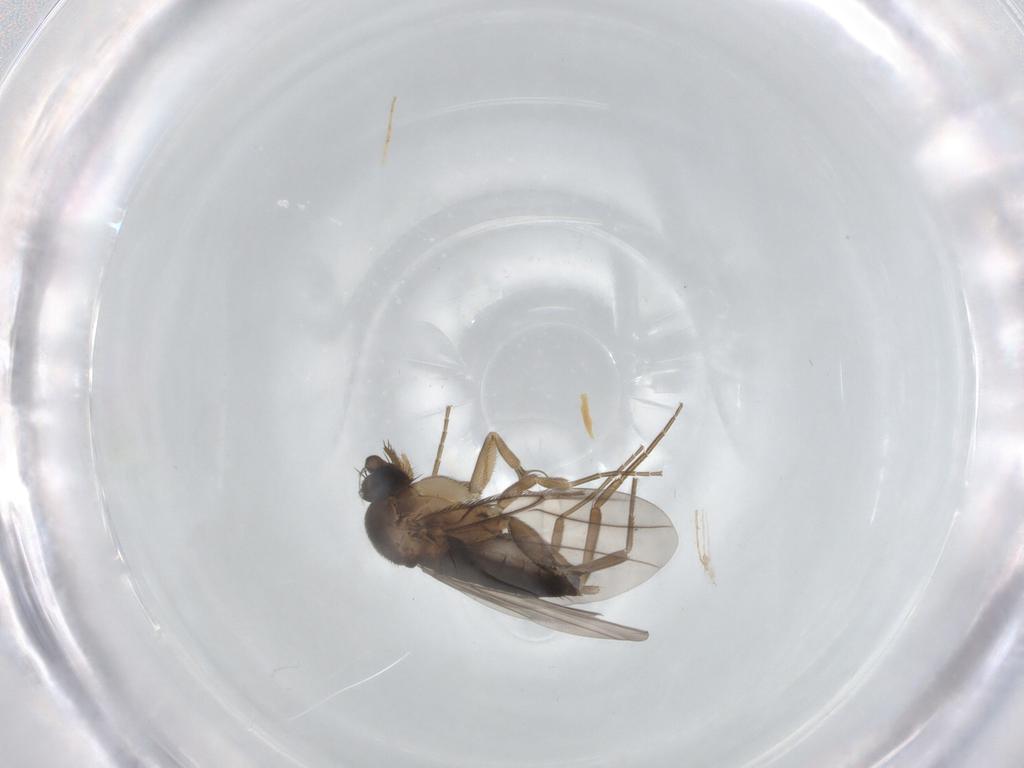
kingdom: Animalia
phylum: Arthropoda
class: Insecta
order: Diptera
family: Phoridae
